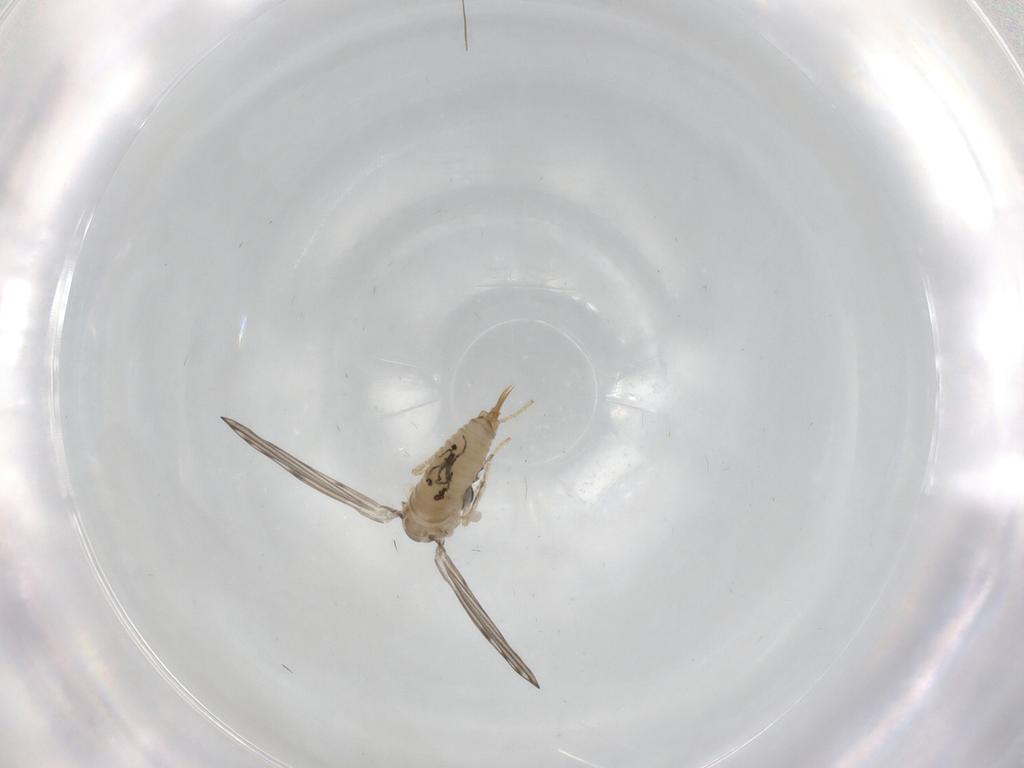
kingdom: Animalia
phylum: Arthropoda
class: Insecta
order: Diptera
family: Psychodidae
